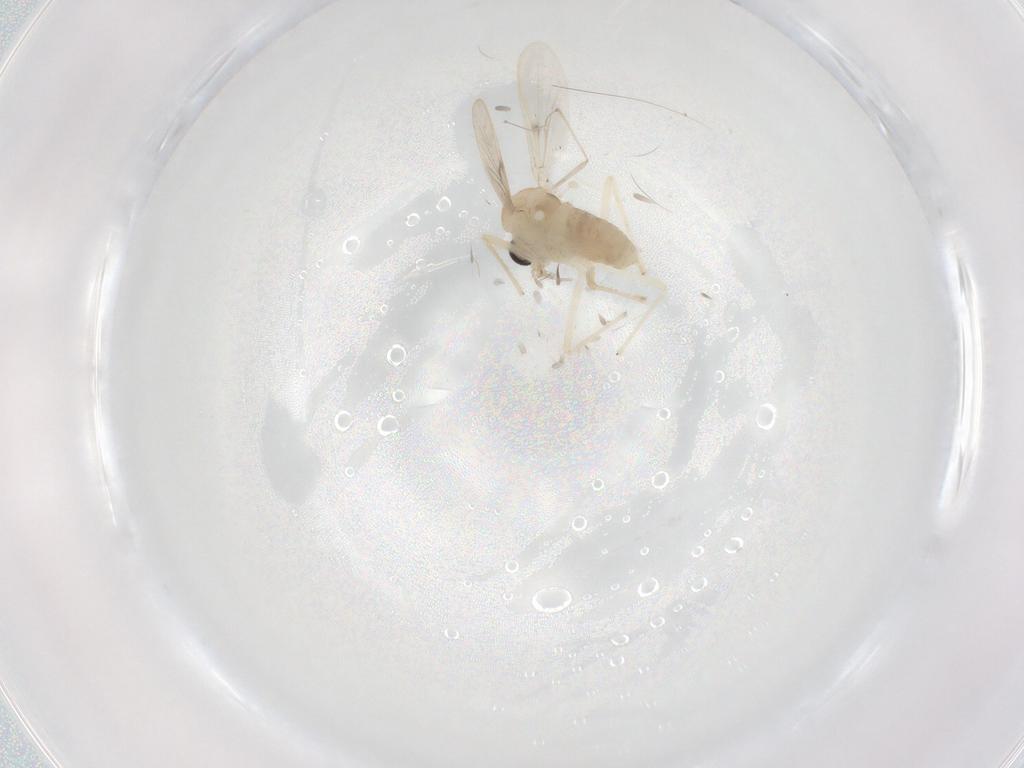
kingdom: Animalia
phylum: Arthropoda
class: Insecta
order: Diptera
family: Chironomidae
